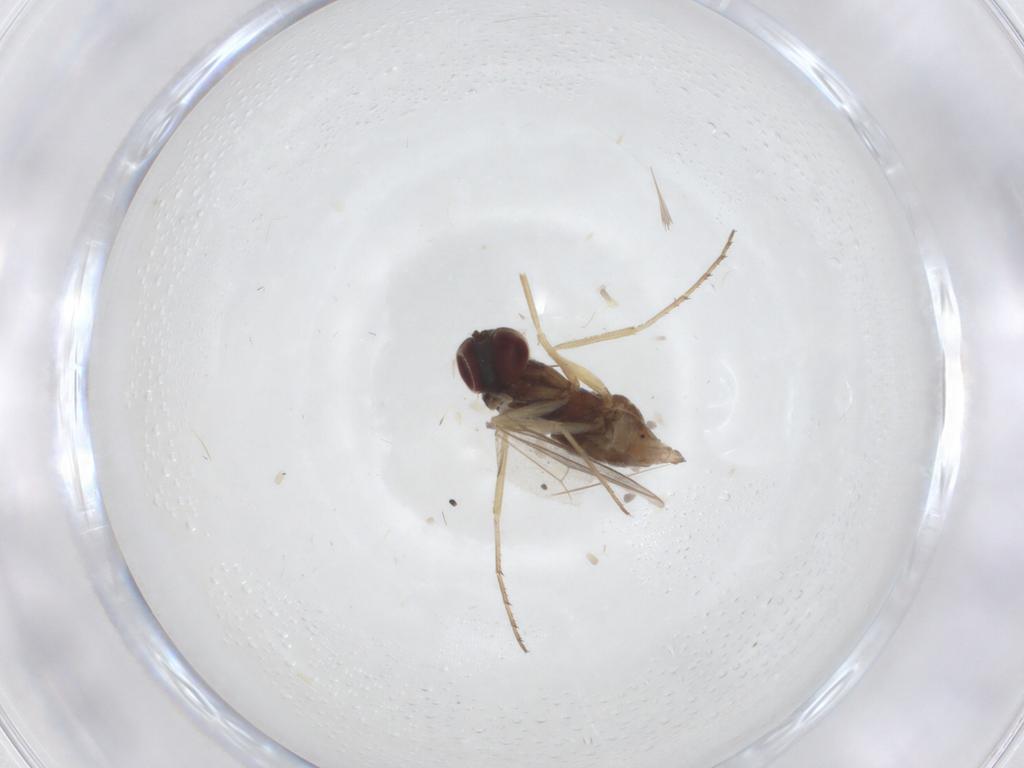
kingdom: Animalia
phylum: Arthropoda
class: Insecta
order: Diptera
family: Dolichopodidae
